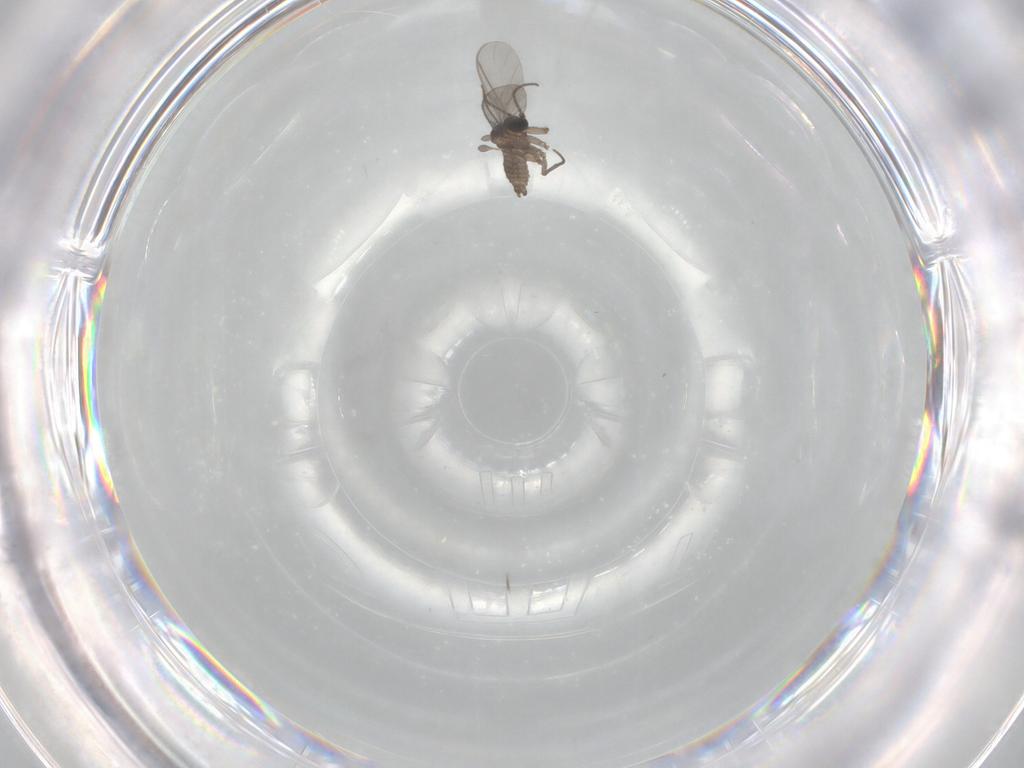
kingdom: Animalia
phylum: Arthropoda
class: Insecta
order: Diptera
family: Sciaridae
